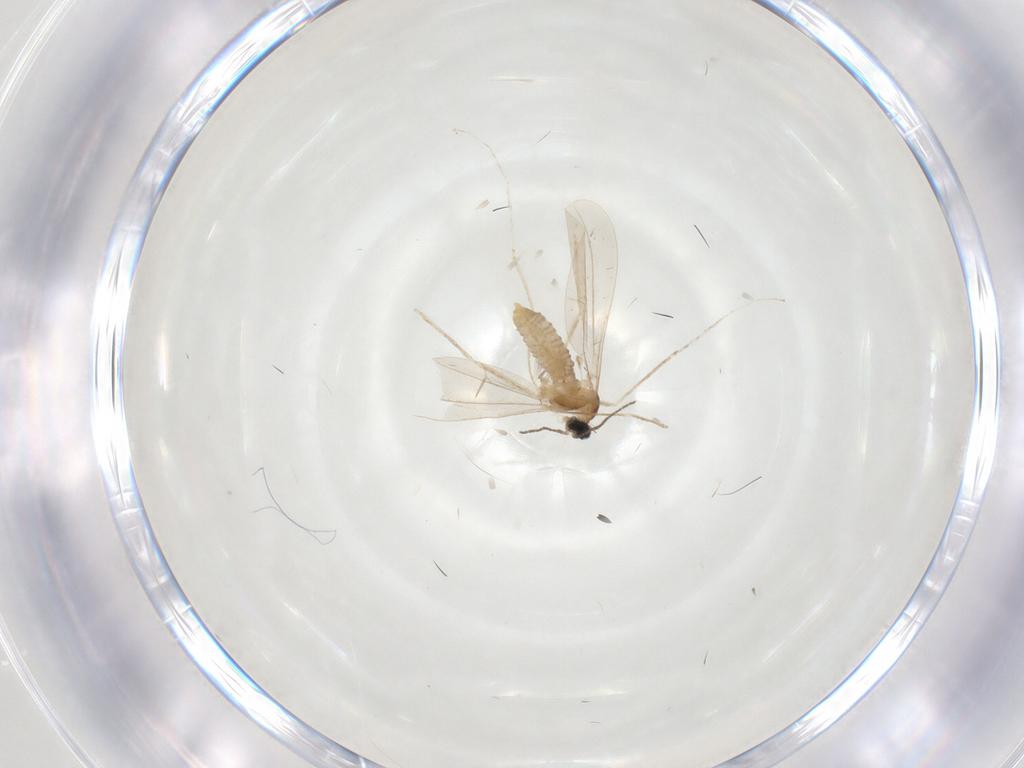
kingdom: Animalia
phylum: Arthropoda
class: Insecta
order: Diptera
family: Cecidomyiidae
